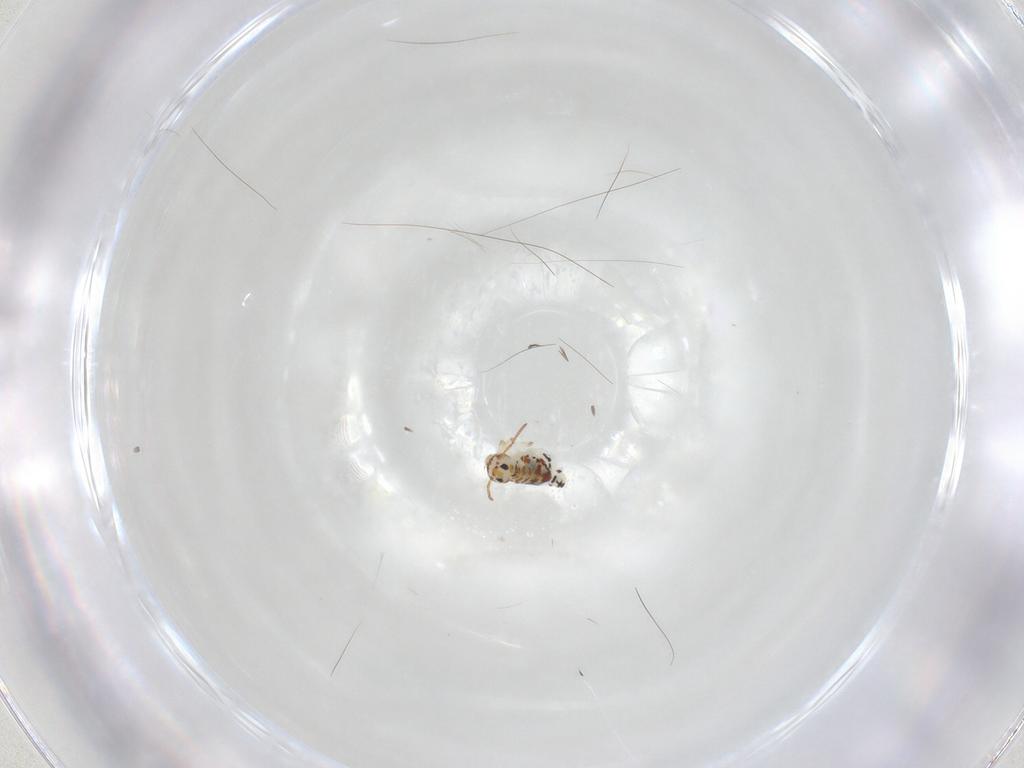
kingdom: Animalia
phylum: Arthropoda
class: Collembola
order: Symphypleona
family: Bourletiellidae
